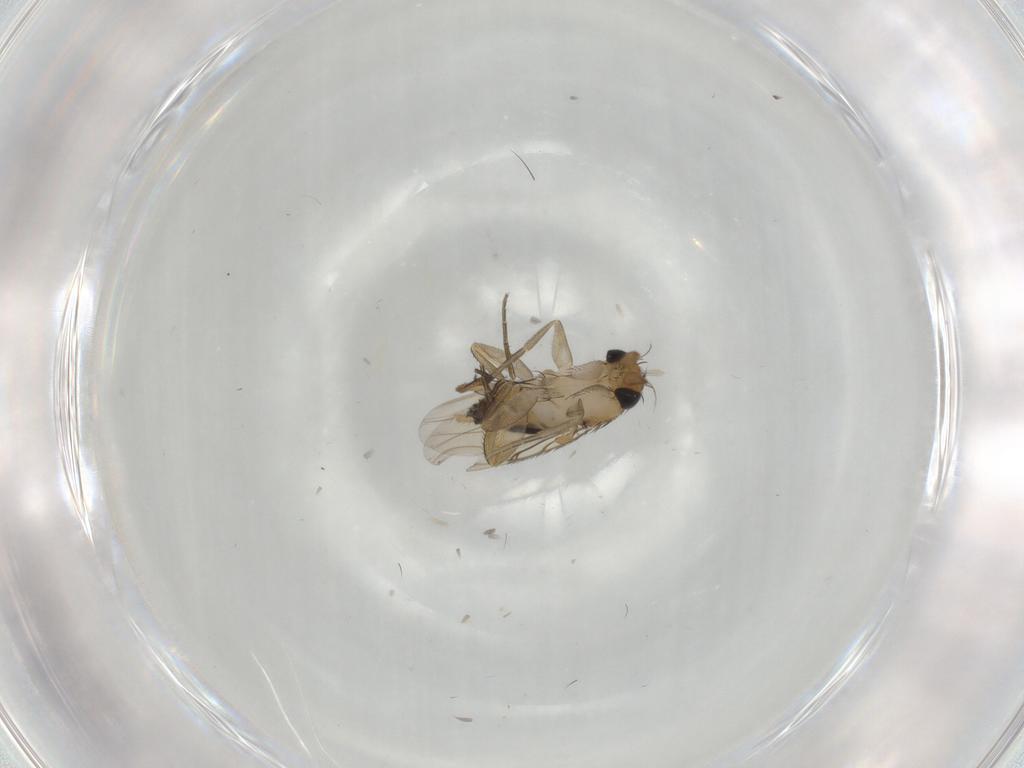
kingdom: Animalia
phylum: Arthropoda
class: Insecta
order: Diptera
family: Phoridae
